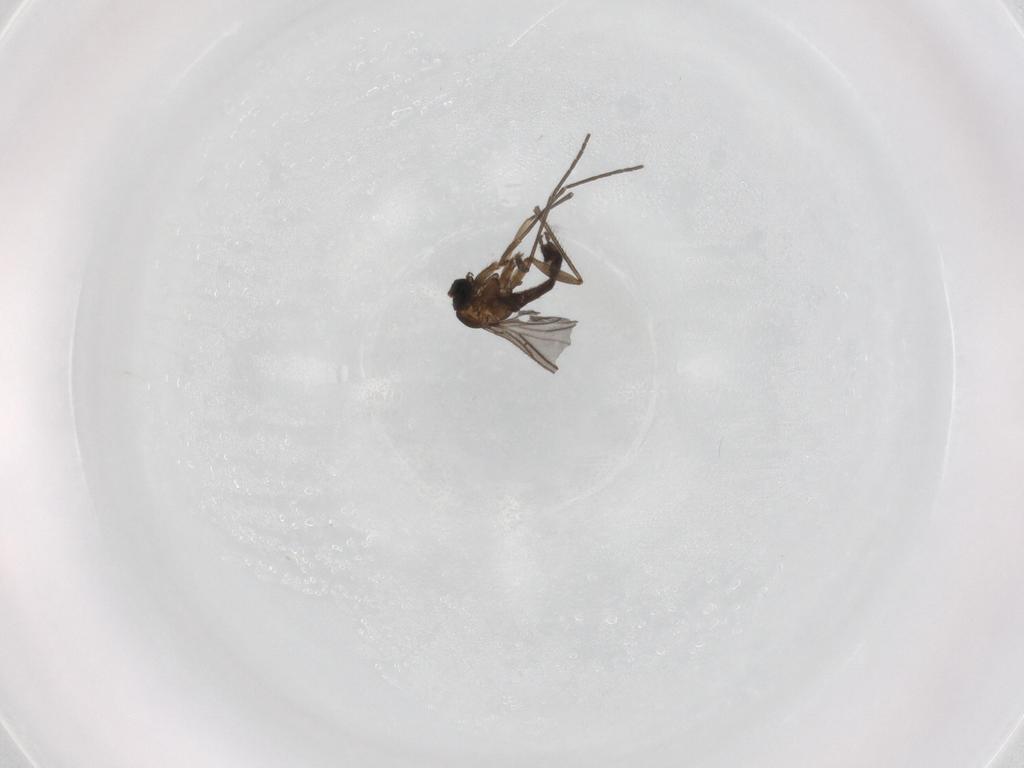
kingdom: Animalia
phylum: Arthropoda
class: Insecta
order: Diptera
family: Sciaridae
